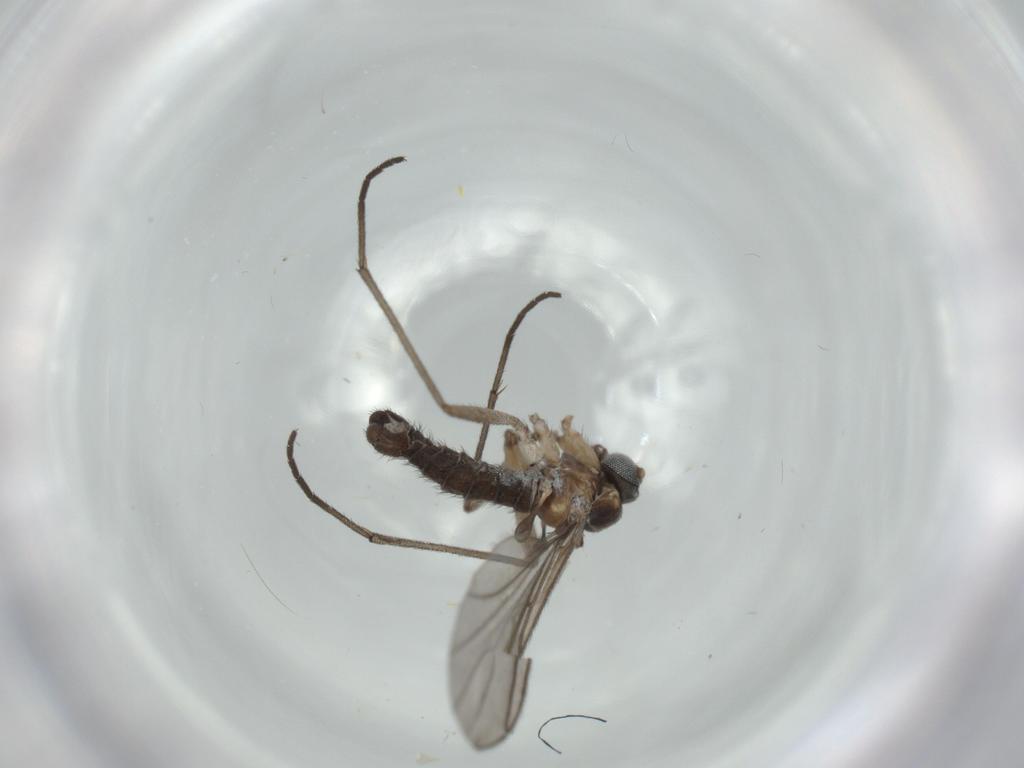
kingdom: Animalia
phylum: Arthropoda
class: Insecta
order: Diptera
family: Sciaridae
